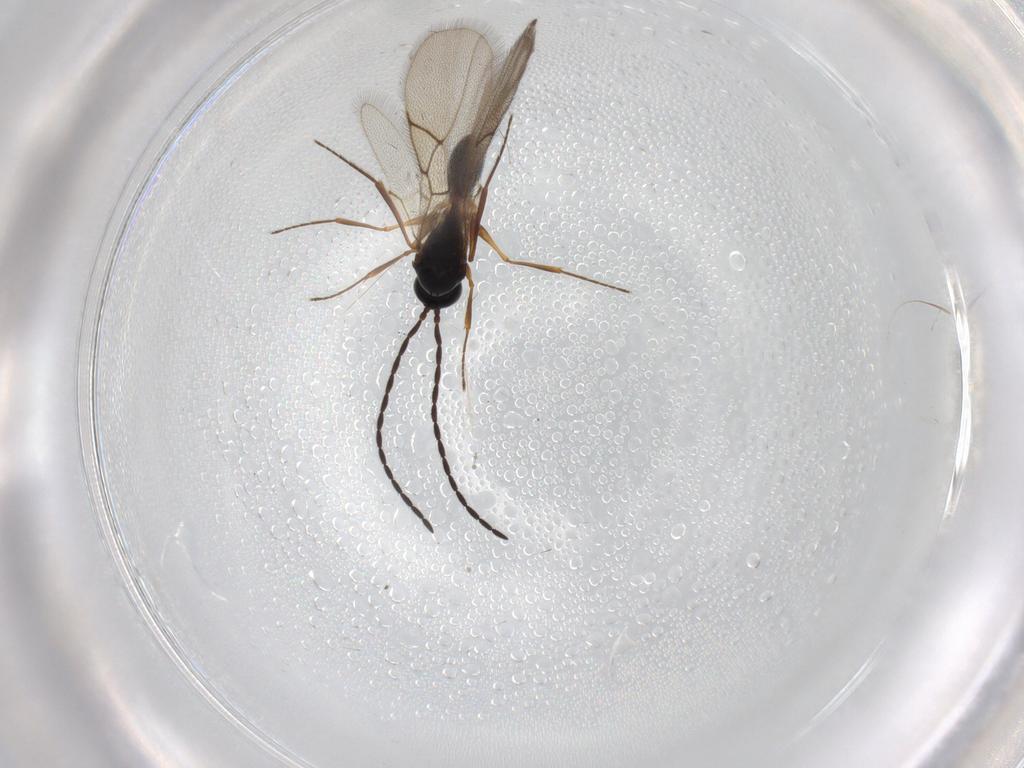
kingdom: Animalia
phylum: Arthropoda
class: Insecta
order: Hymenoptera
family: Figitidae
